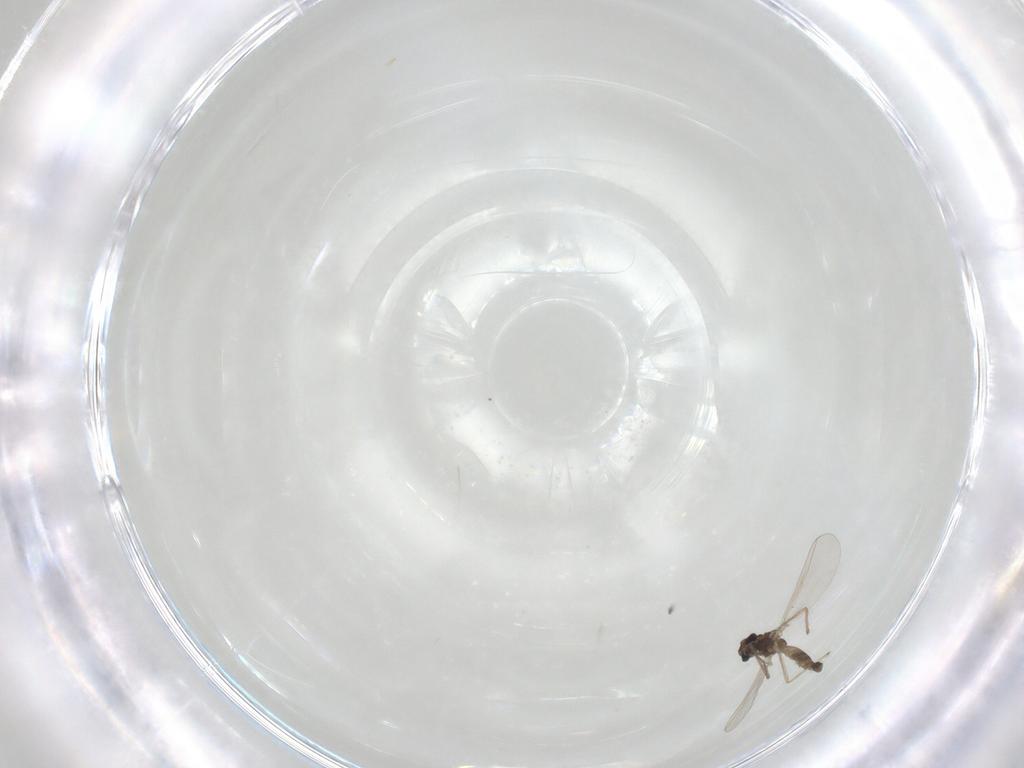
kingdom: Animalia
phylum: Arthropoda
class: Insecta
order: Diptera
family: Chironomidae
